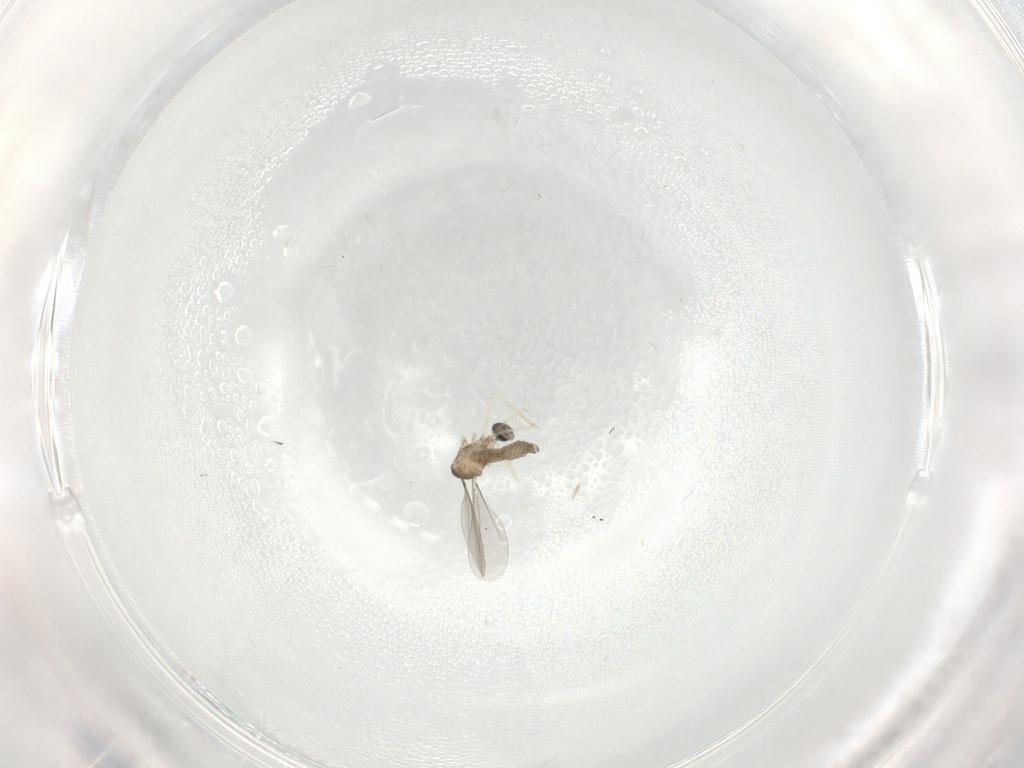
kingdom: Animalia
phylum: Arthropoda
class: Insecta
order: Diptera
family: Cecidomyiidae
